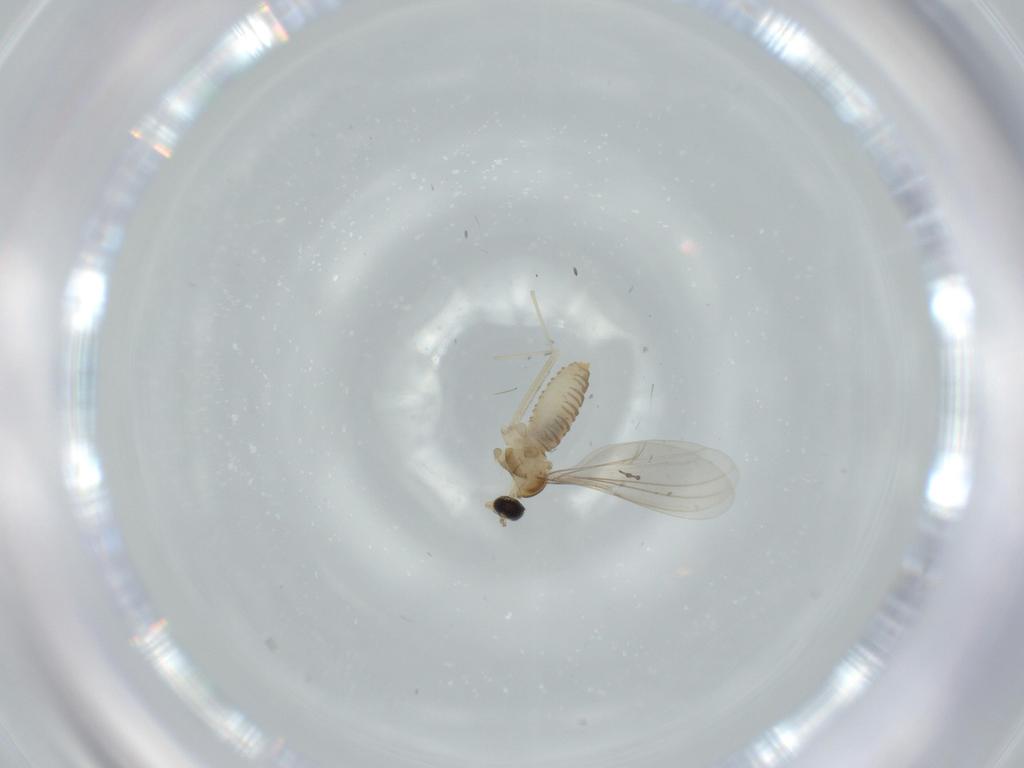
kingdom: Animalia
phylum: Arthropoda
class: Insecta
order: Diptera
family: Cecidomyiidae
